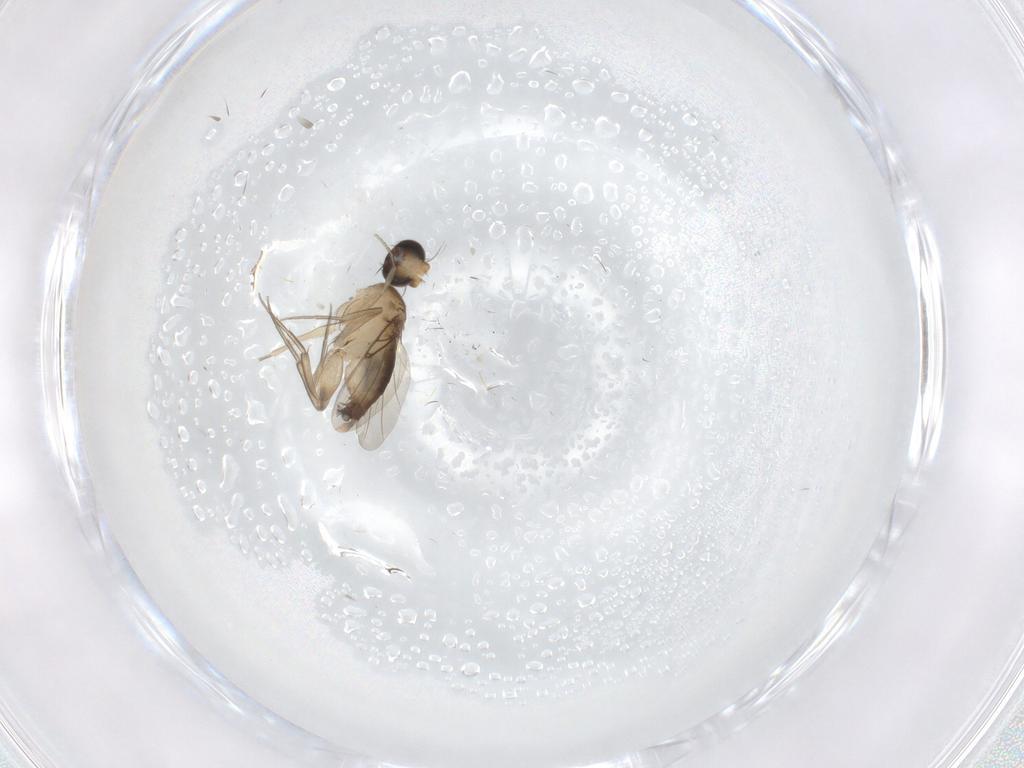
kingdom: Animalia
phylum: Arthropoda
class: Insecta
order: Diptera
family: Phoridae
